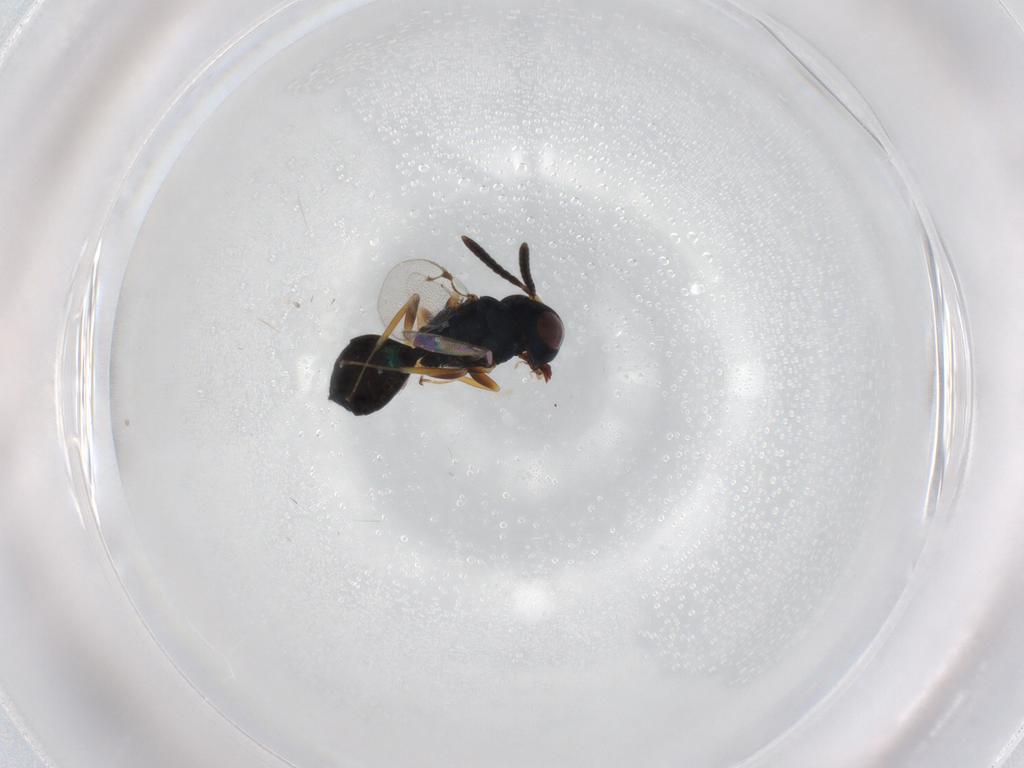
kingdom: Animalia
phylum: Arthropoda
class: Insecta
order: Hymenoptera
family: Pteromalidae
